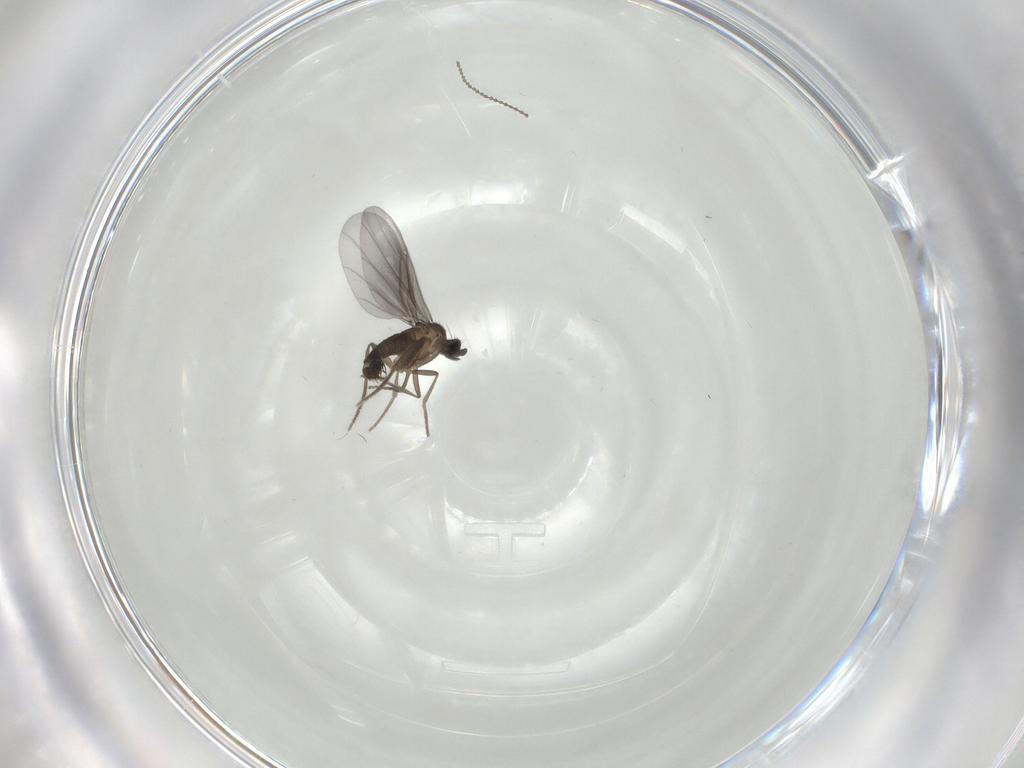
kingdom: Animalia
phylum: Arthropoda
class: Insecta
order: Diptera
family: Phoridae
